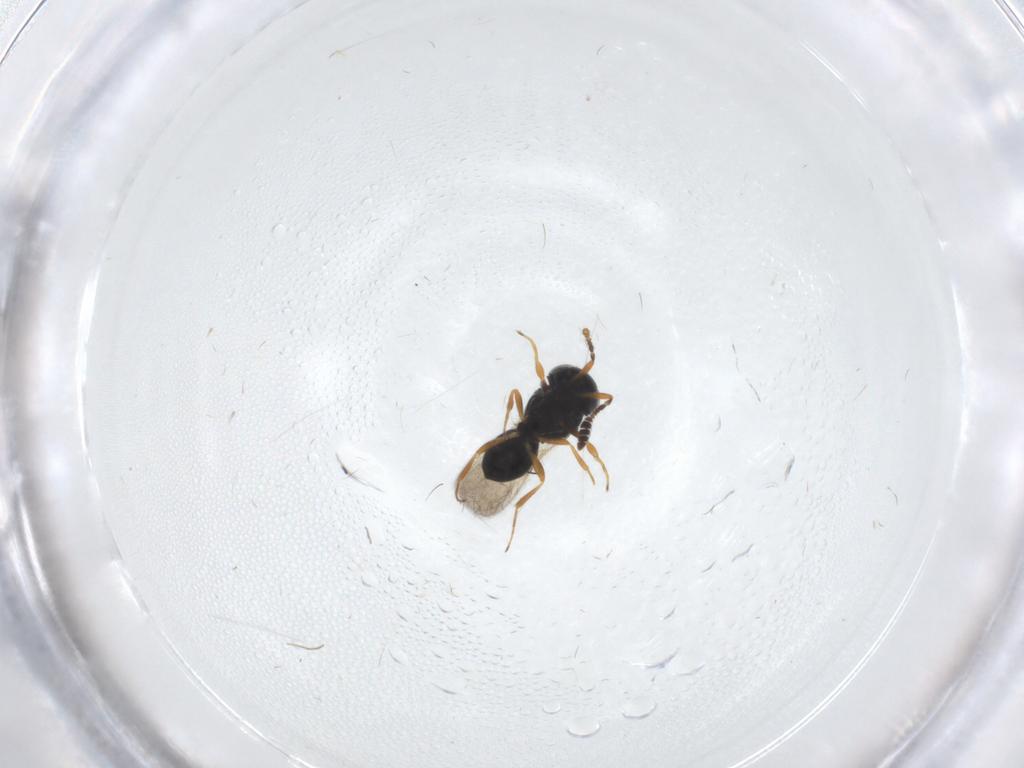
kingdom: Animalia
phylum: Arthropoda
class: Insecta
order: Hymenoptera
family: Scelionidae
